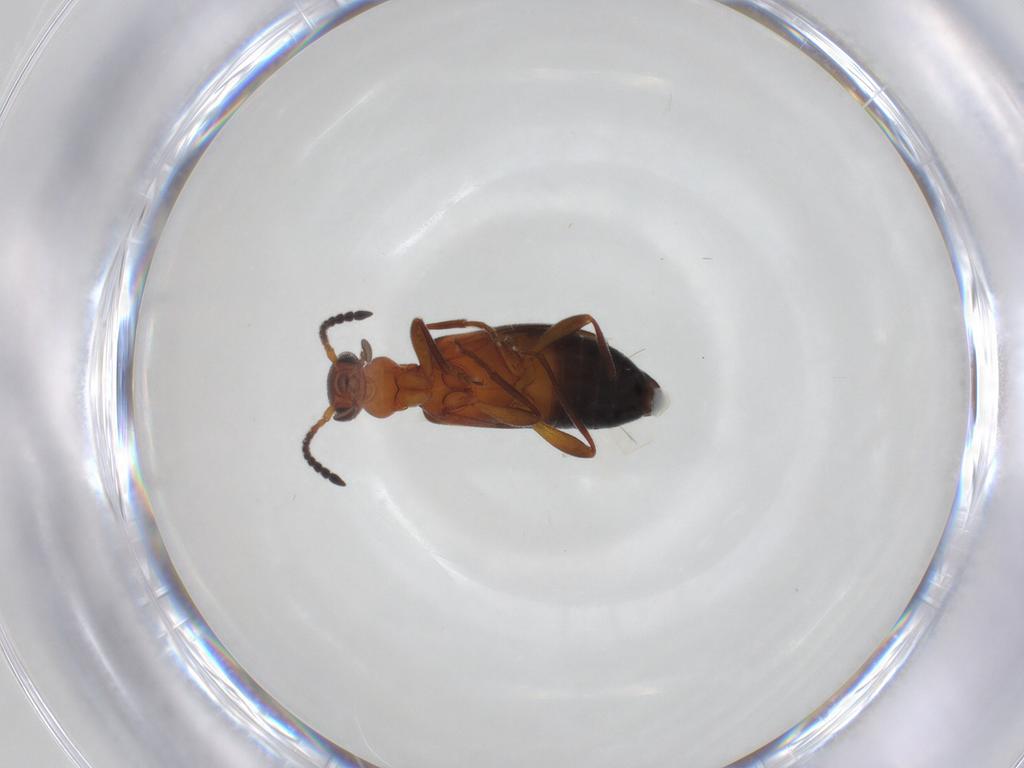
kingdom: Animalia
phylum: Arthropoda
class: Insecta
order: Coleoptera
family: Anthicidae
